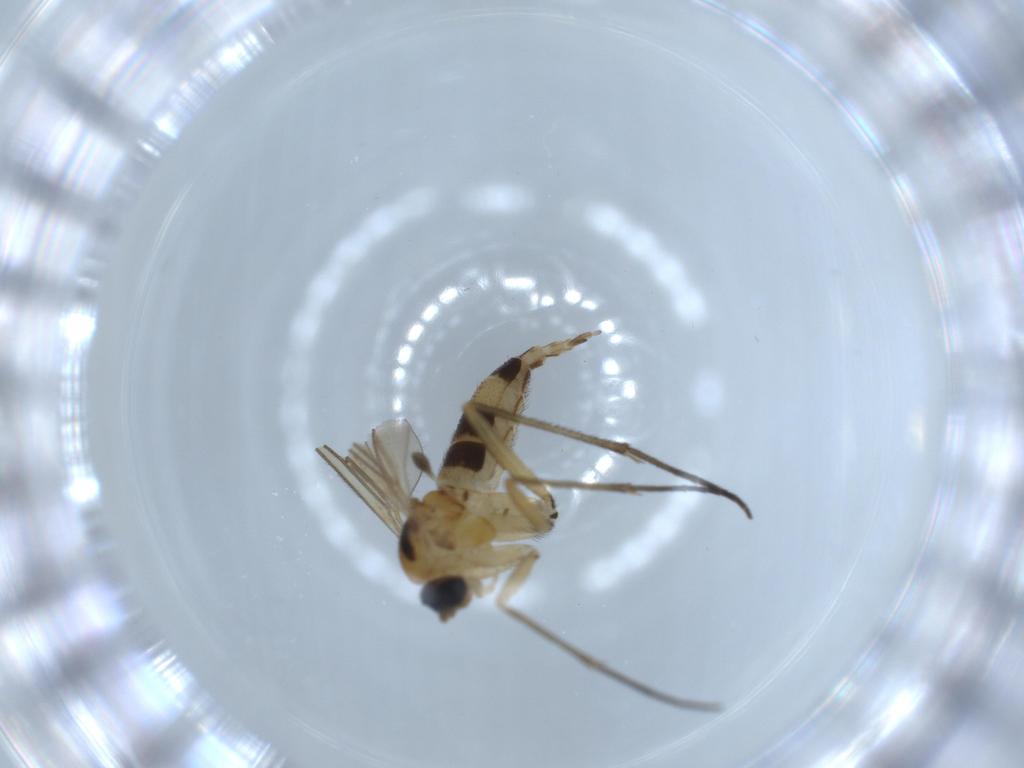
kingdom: Animalia
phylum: Arthropoda
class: Insecta
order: Diptera
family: Sciaridae
